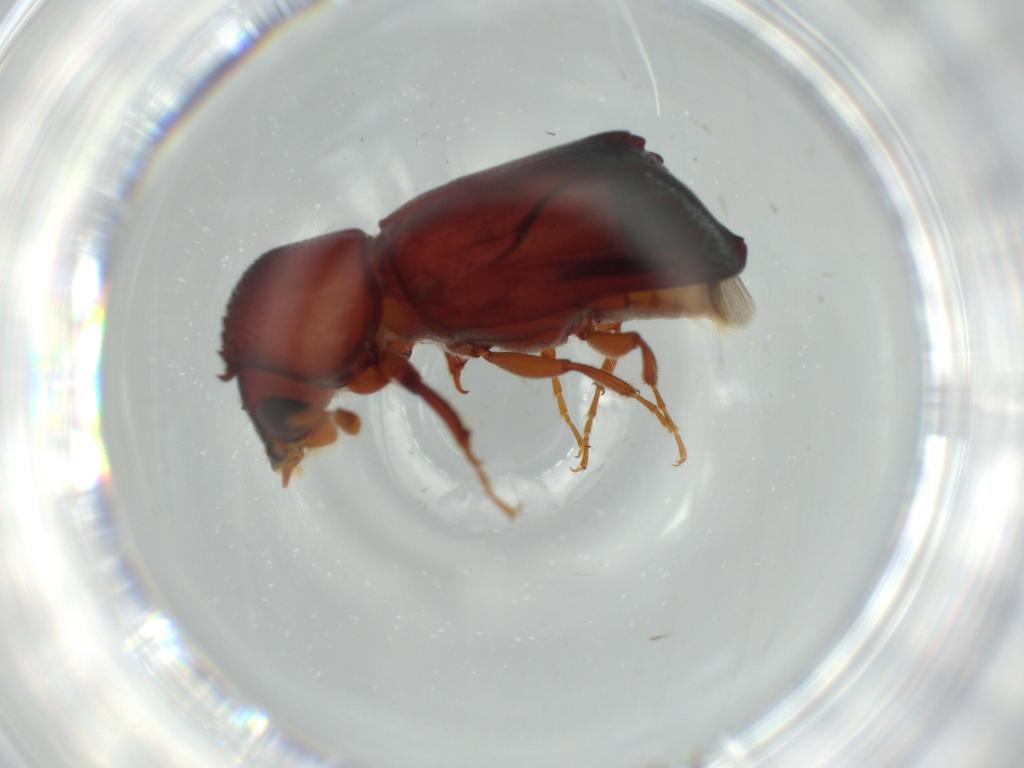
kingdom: Animalia
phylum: Arthropoda
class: Insecta
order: Coleoptera
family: Bostrichidae
